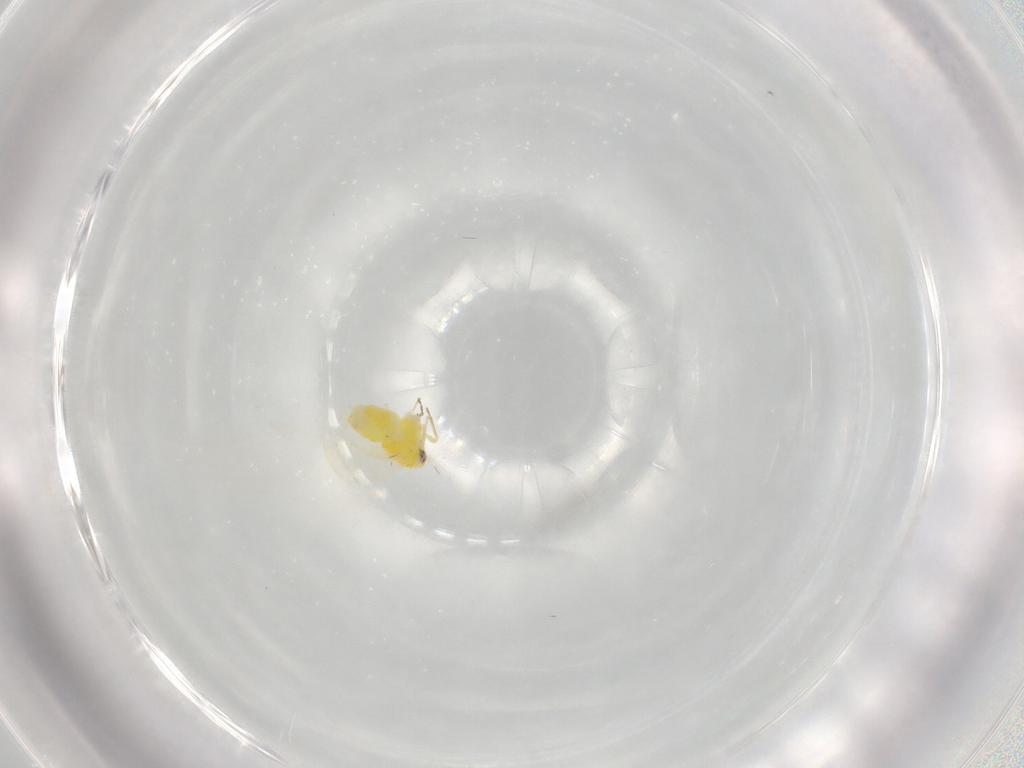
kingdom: Animalia
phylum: Arthropoda
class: Insecta
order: Hemiptera
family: Aleyrodidae
